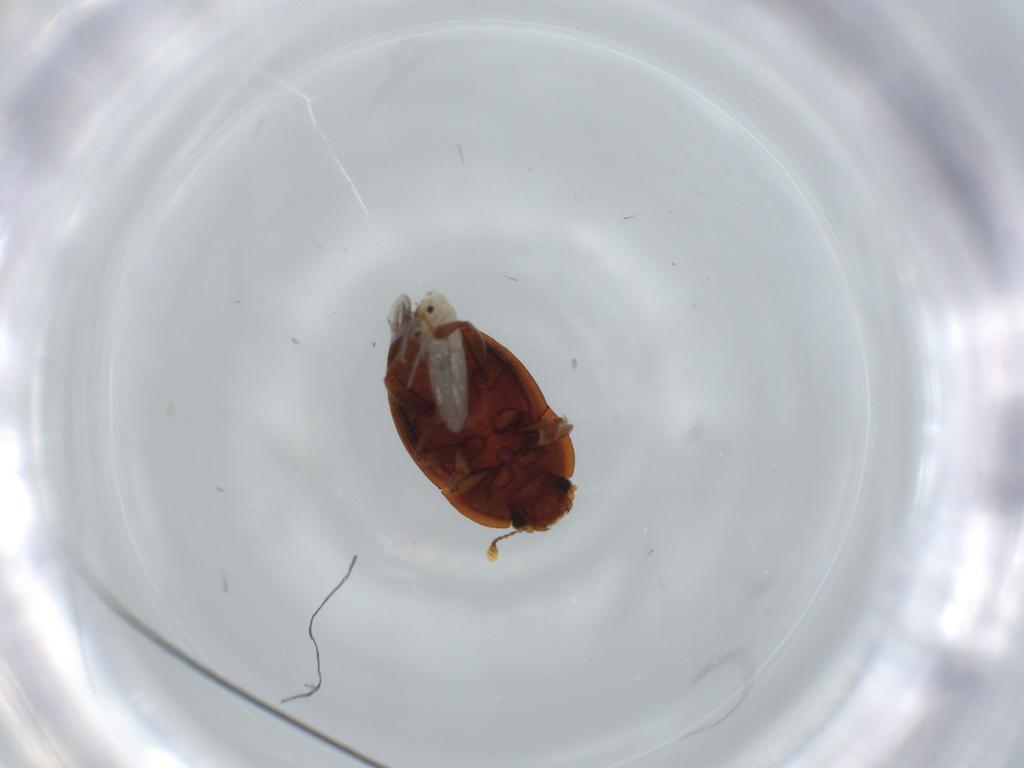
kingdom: Animalia
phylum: Arthropoda
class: Insecta
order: Coleoptera
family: Nitidulidae
